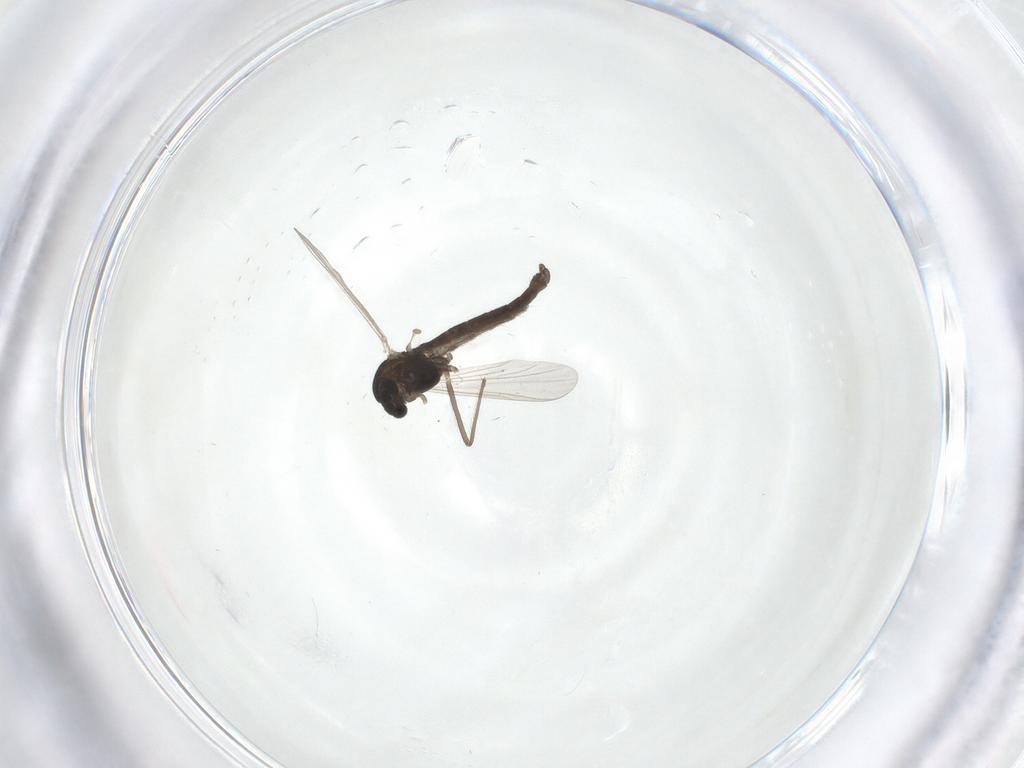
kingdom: Animalia
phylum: Arthropoda
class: Insecta
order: Diptera
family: Chironomidae
